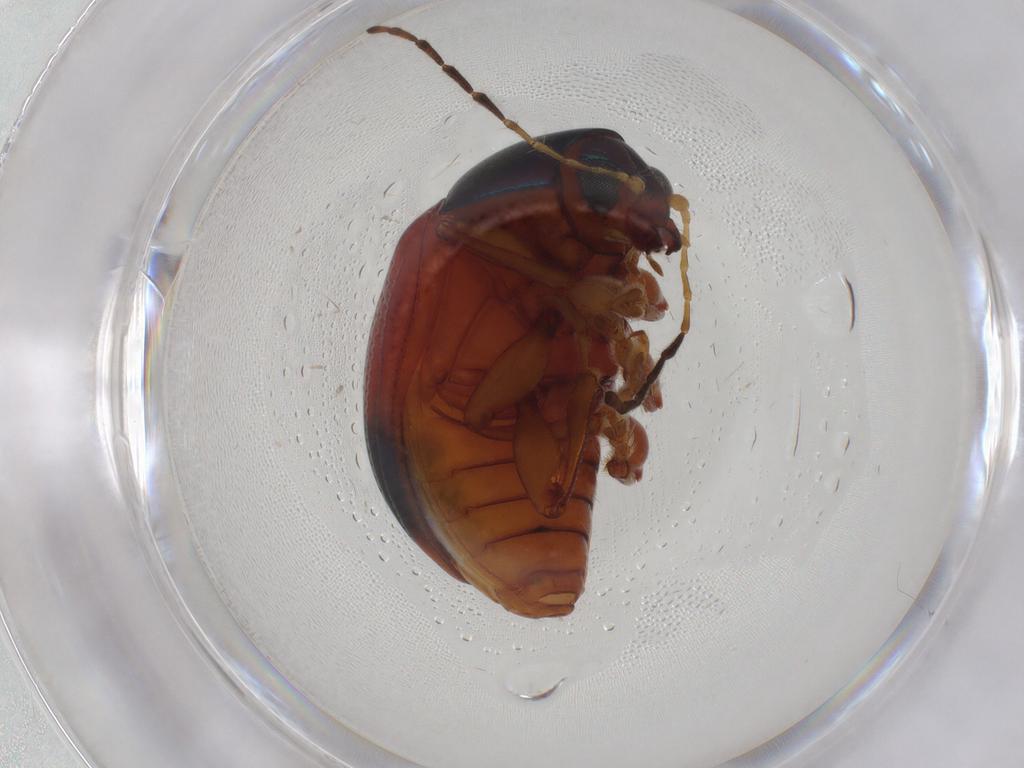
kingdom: Animalia
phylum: Arthropoda
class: Insecta
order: Coleoptera
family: Chrysomelidae
